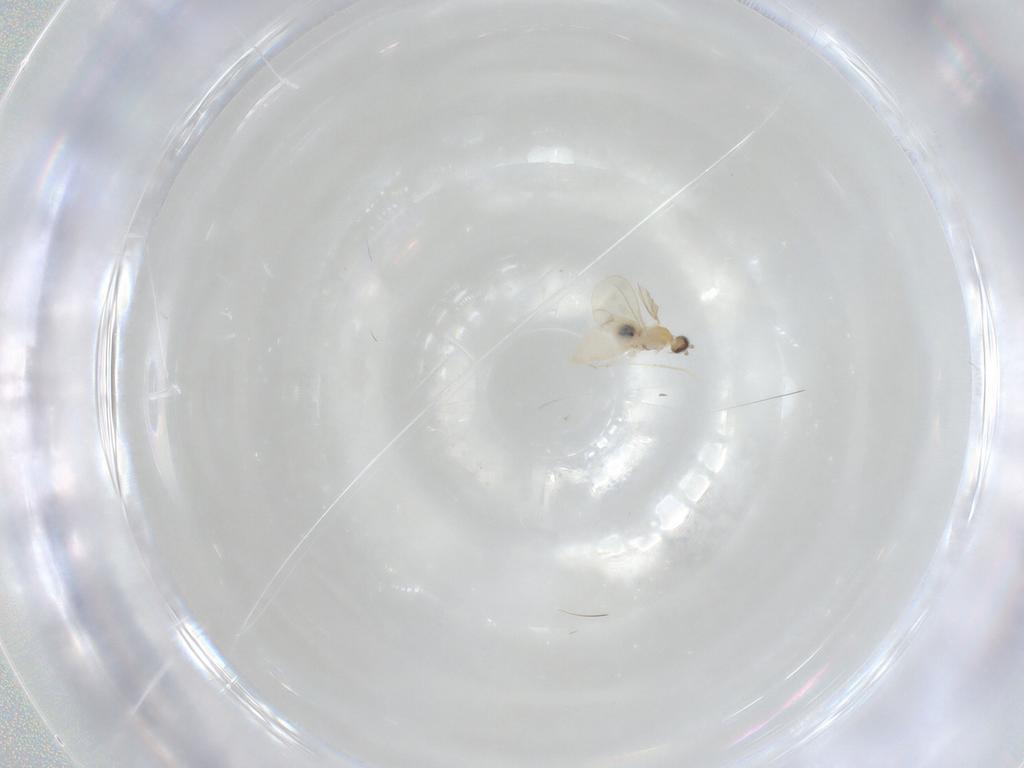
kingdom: Animalia
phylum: Arthropoda
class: Insecta
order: Diptera
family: Cecidomyiidae
